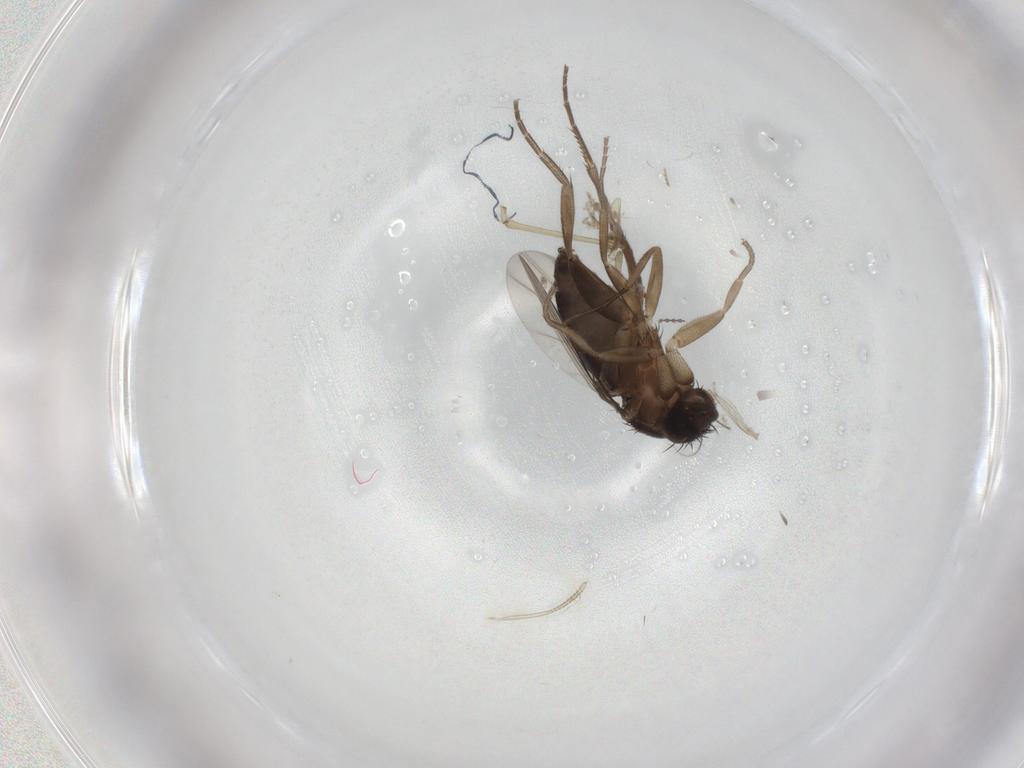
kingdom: Animalia
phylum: Arthropoda
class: Insecta
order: Diptera
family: Phoridae
